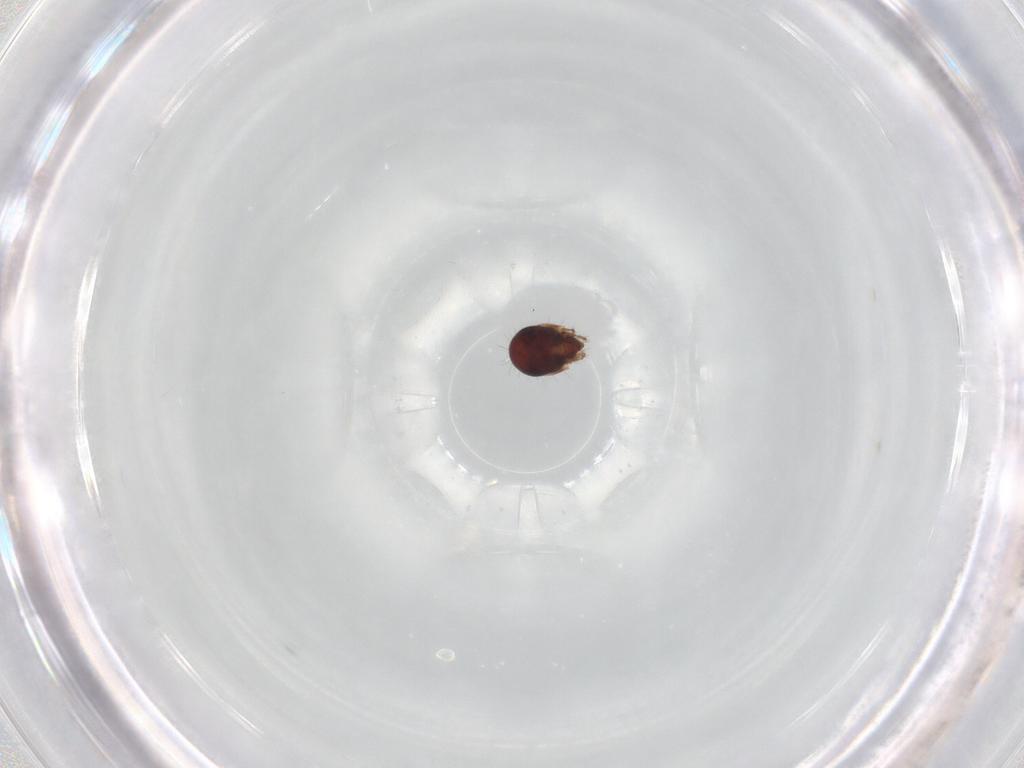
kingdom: Animalia
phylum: Arthropoda
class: Arachnida
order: Sarcoptiformes
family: Humerobatidae
